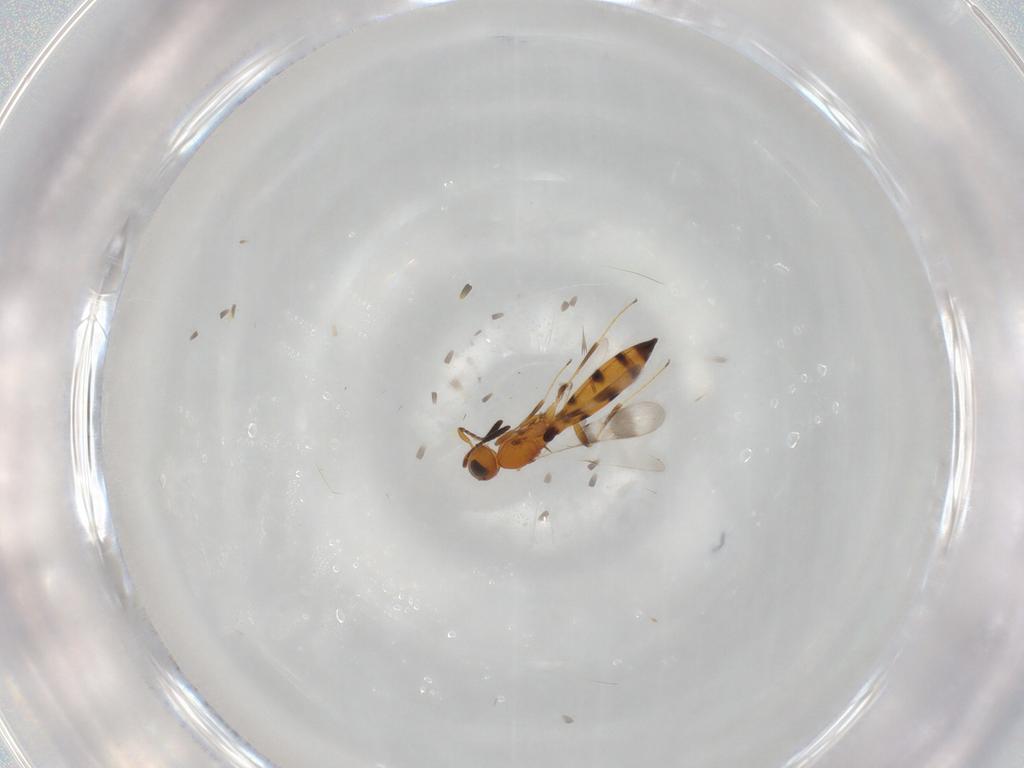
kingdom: Animalia
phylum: Arthropoda
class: Insecta
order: Hymenoptera
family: Scelionidae
